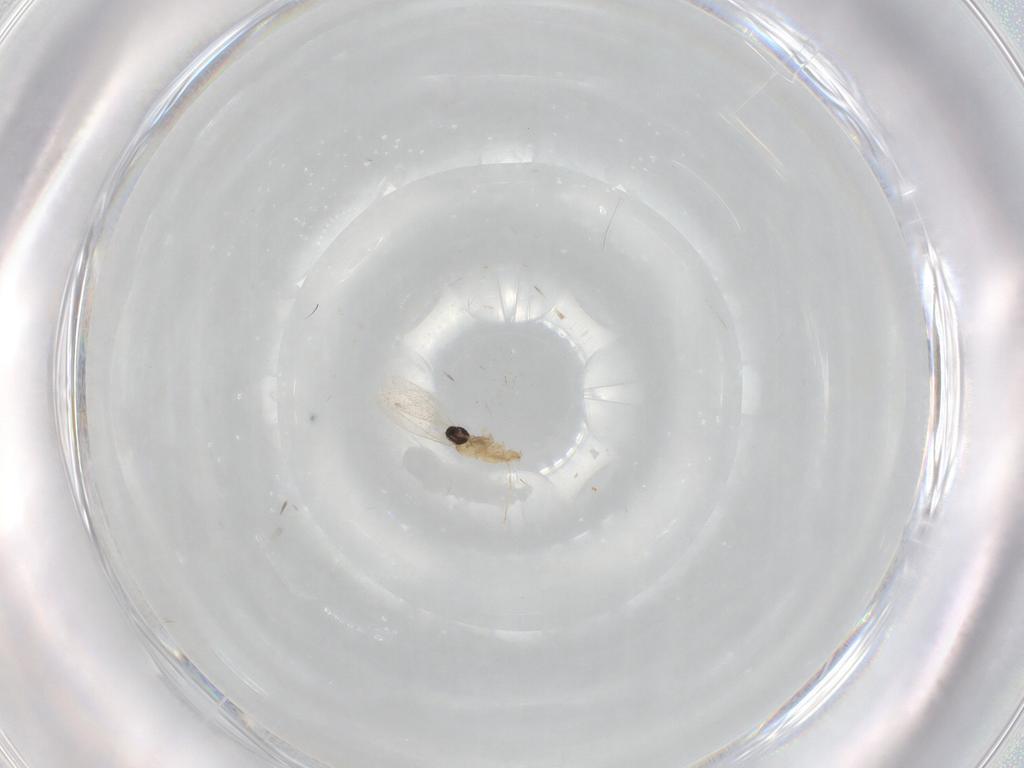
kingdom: Animalia
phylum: Arthropoda
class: Insecta
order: Diptera
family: Cecidomyiidae
